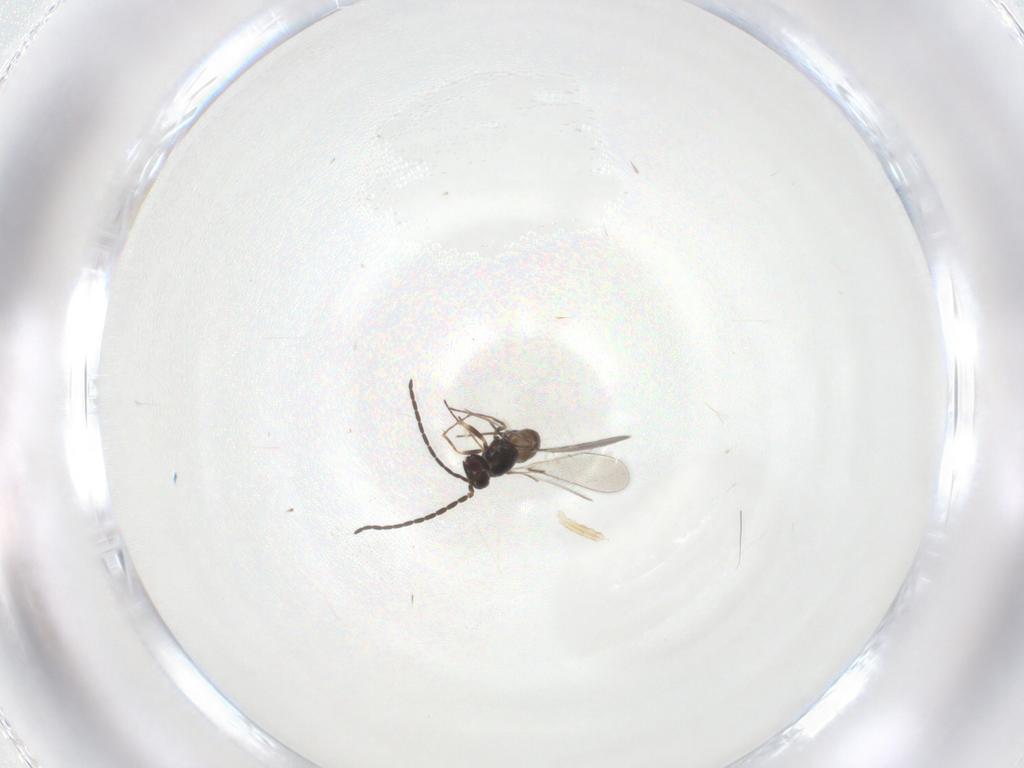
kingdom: Animalia
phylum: Arthropoda
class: Insecta
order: Hymenoptera
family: Mymaridae
